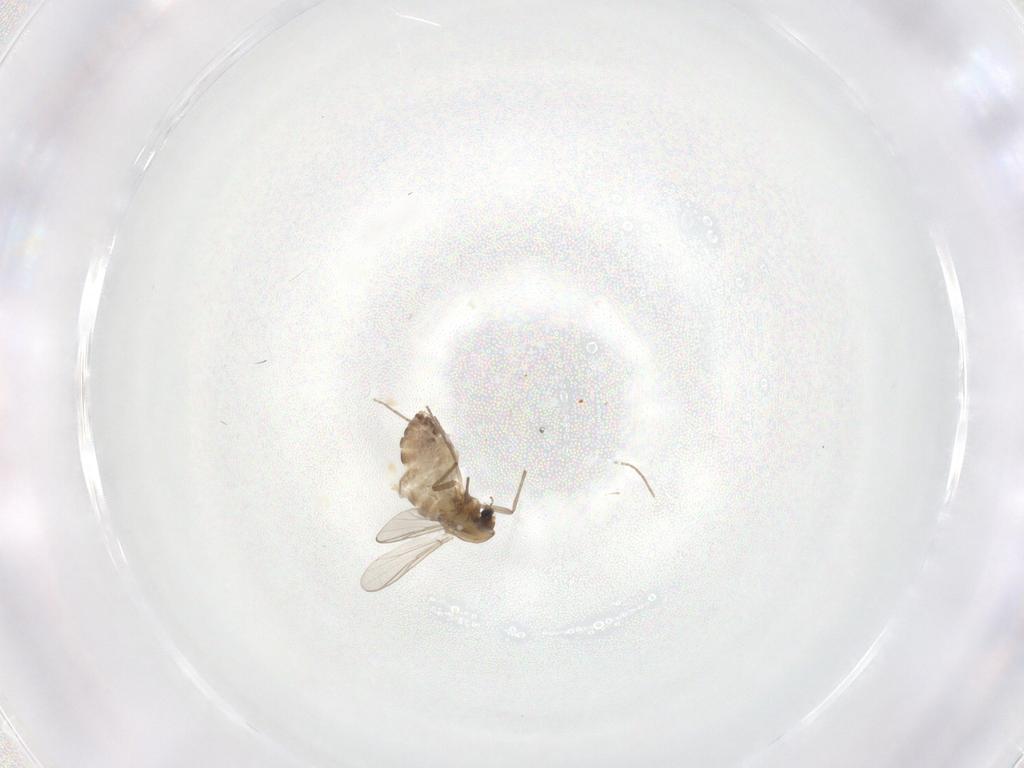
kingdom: Animalia
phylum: Arthropoda
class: Insecta
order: Diptera
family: Chironomidae
